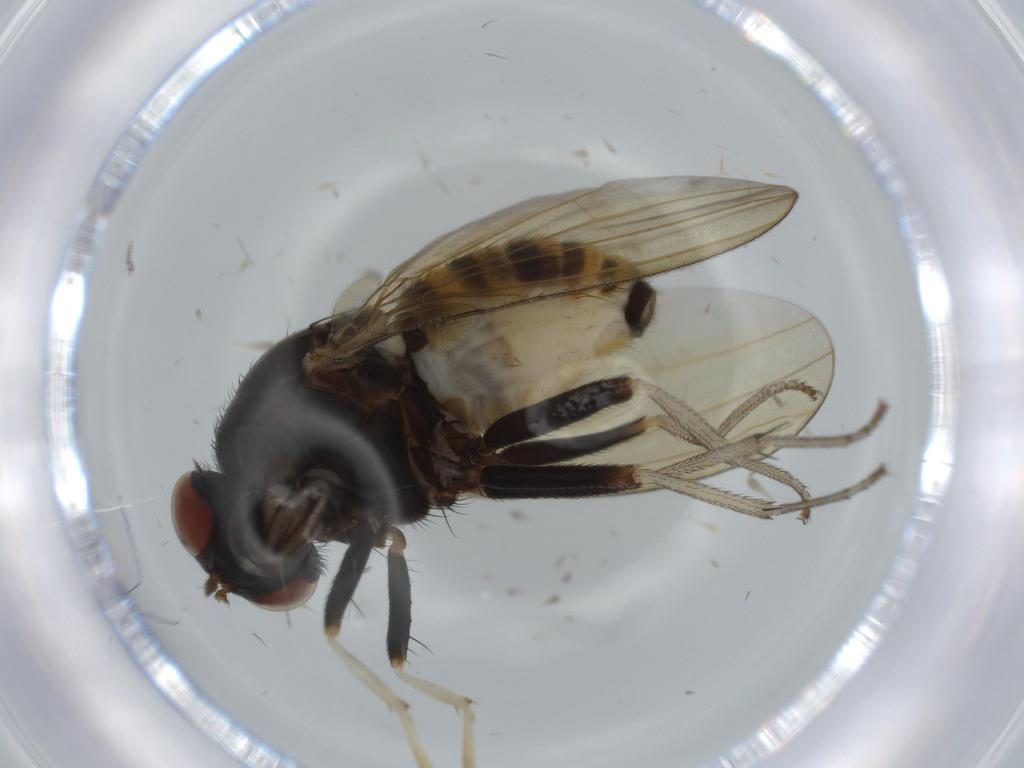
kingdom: Animalia
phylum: Arthropoda
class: Insecta
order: Diptera
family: Lauxaniidae
